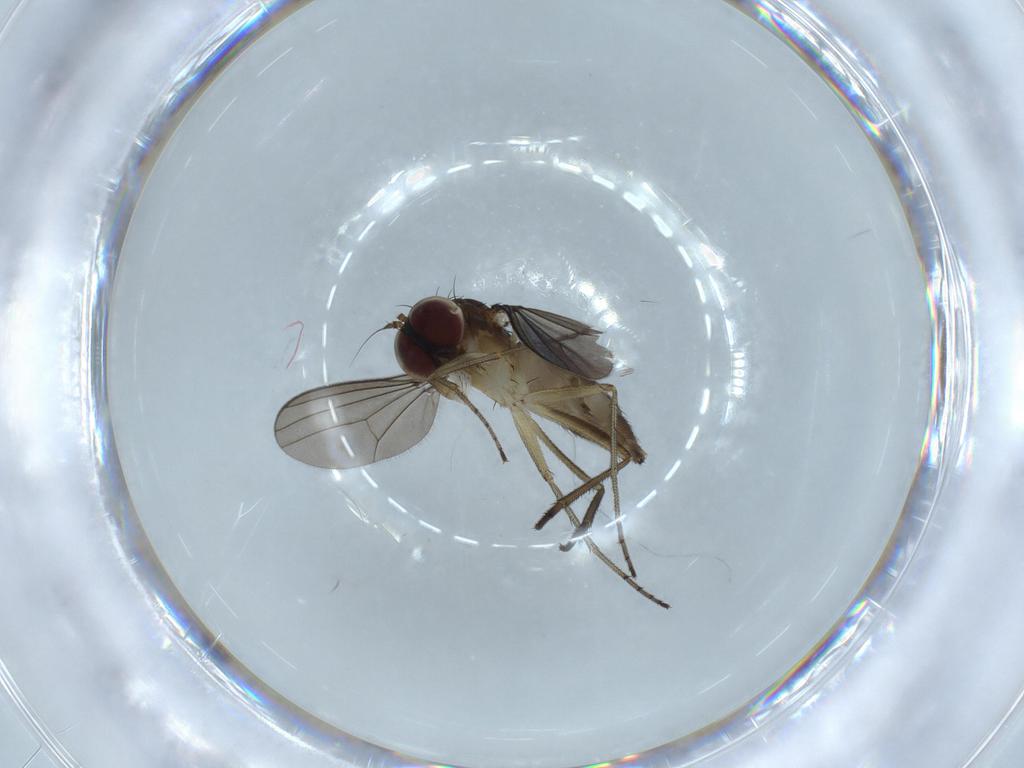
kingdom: Animalia
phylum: Arthropoda
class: Insecta
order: Diptera
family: Dolichopodidae
